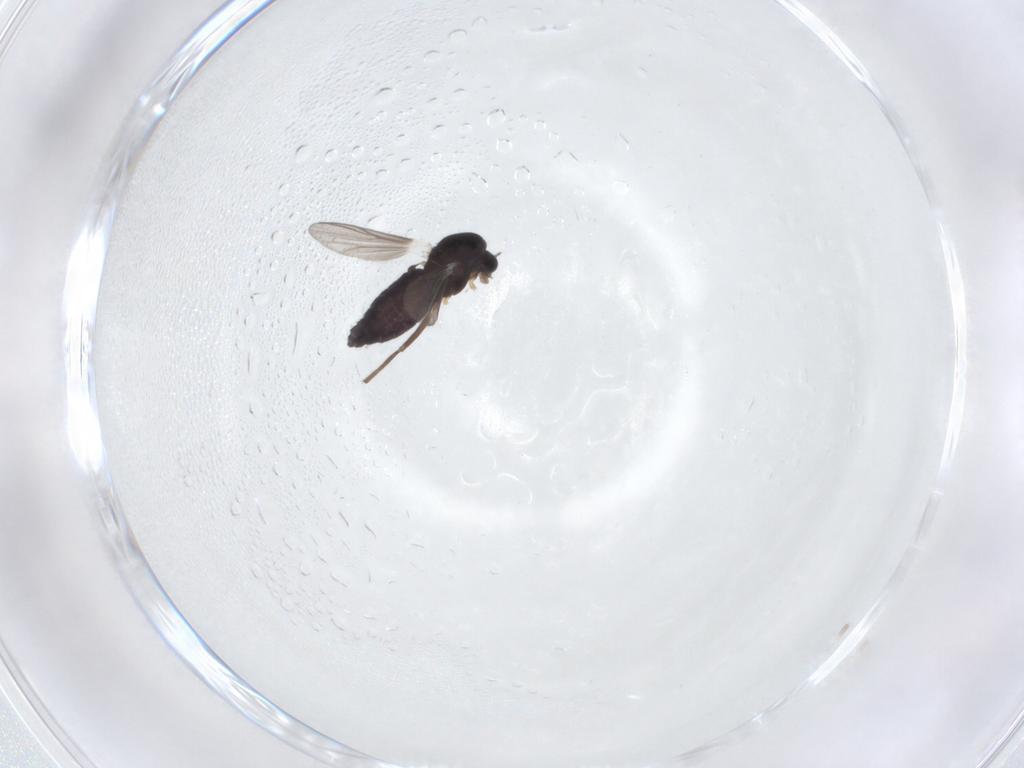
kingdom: Animalia
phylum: Arthropoda
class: Insecta
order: Diptera
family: Chironomidae
